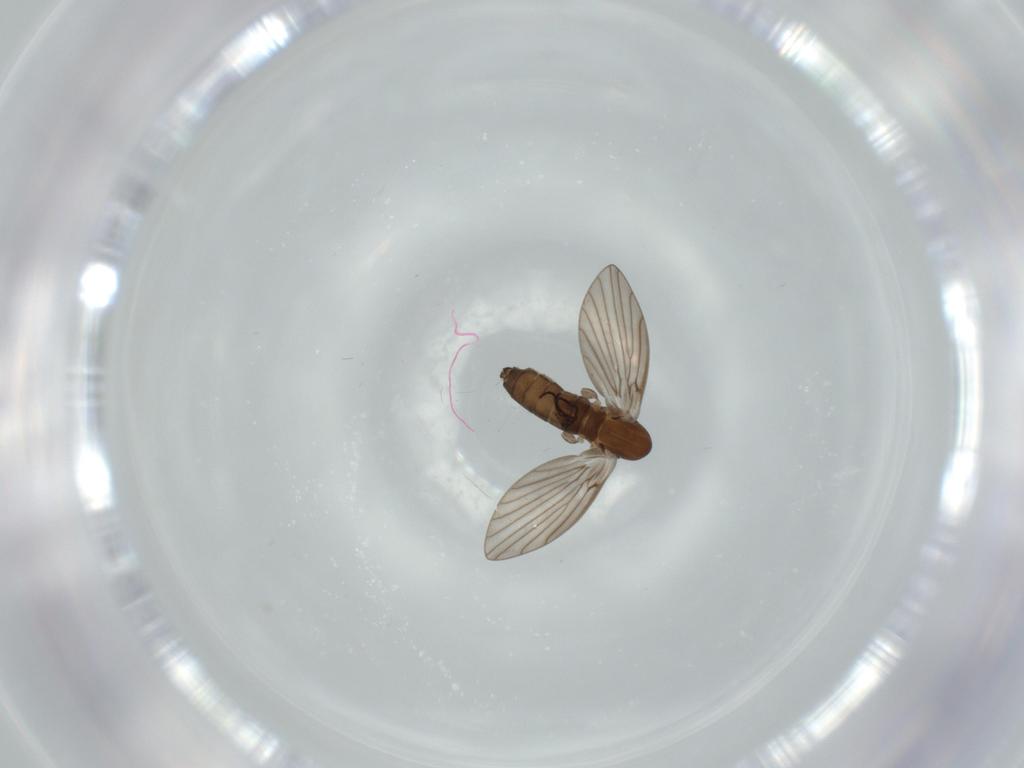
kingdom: Animalia
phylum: Arthropoda
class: Insecta
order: Diptera
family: Psychodidae
